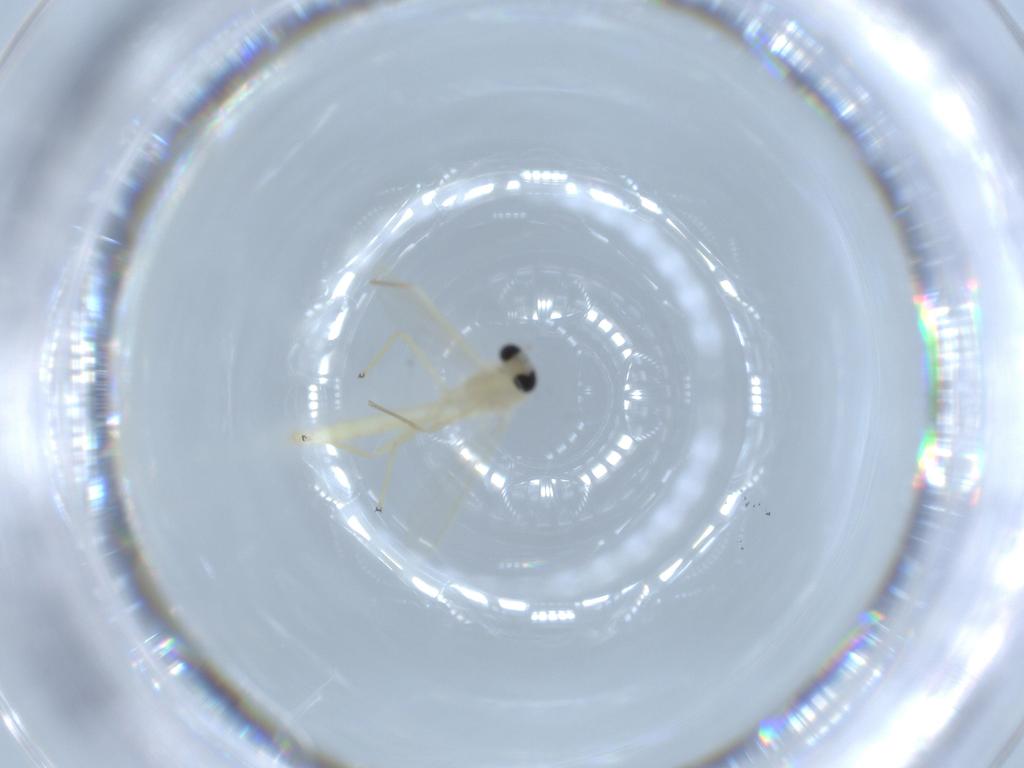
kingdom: Animalia
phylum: Arthropoda
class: Insecta
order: Diptera
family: Chironomidae
